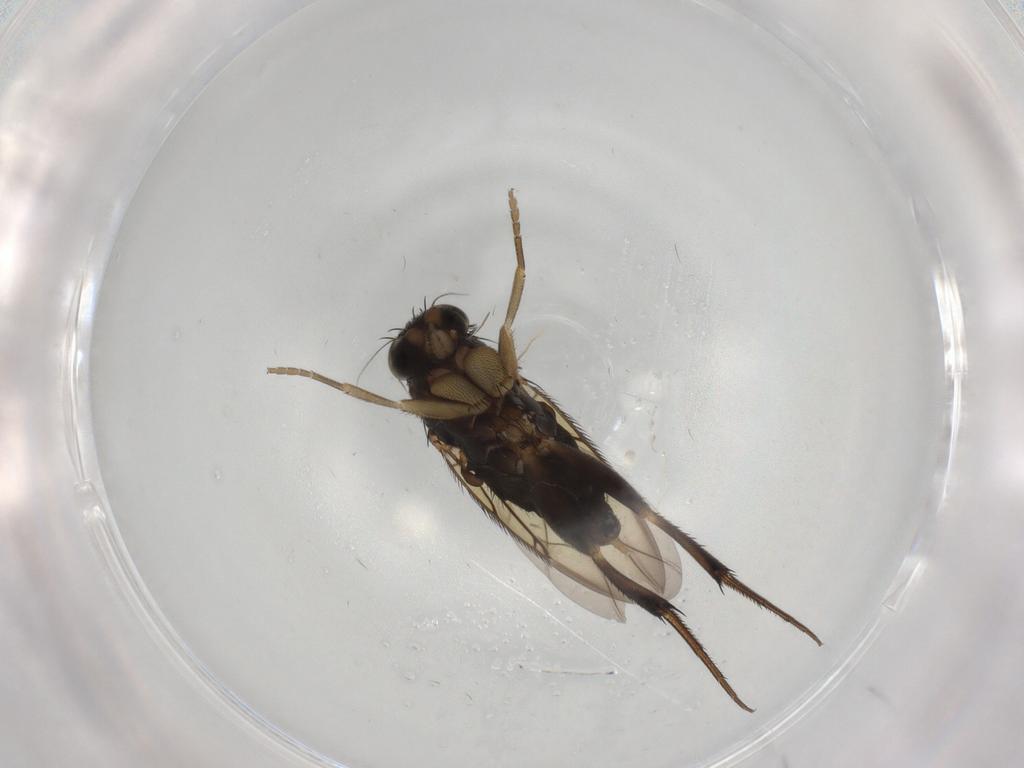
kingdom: Animalia
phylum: Arthropoda
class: Insecta
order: Diptera
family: Phoridae
